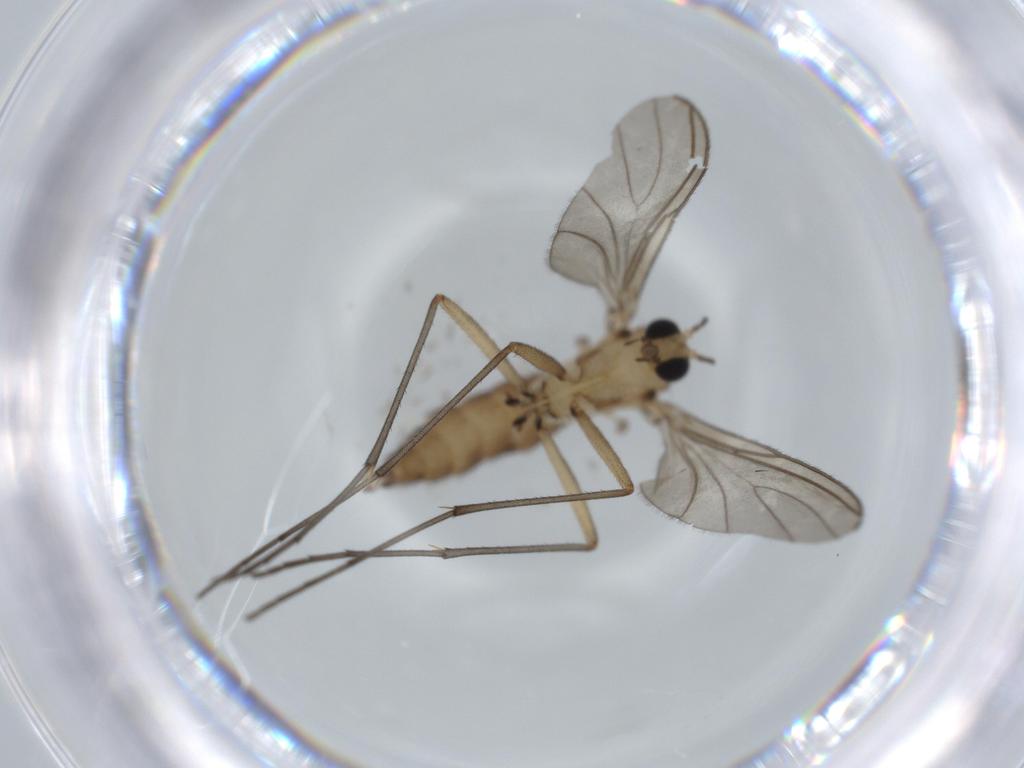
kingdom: Animalia
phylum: Arthropoda
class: Insecta
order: Diptera
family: Sciaridae
